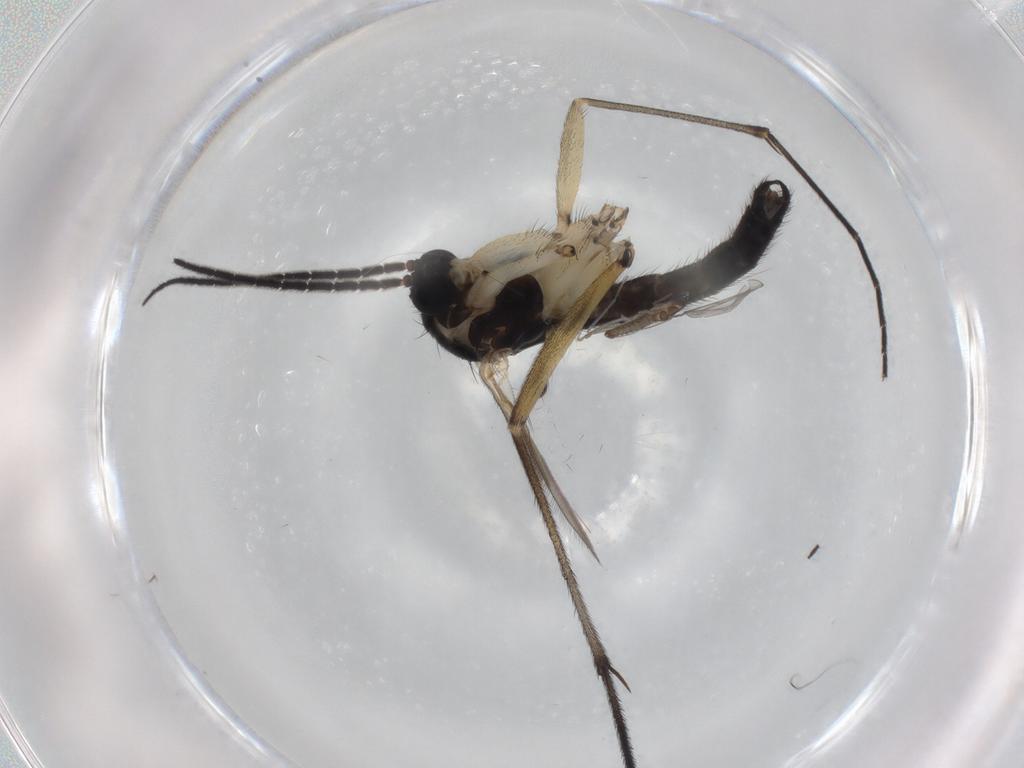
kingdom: Animalia
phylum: Arthropoda
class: Insecta
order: Diptera
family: Sciaridae
